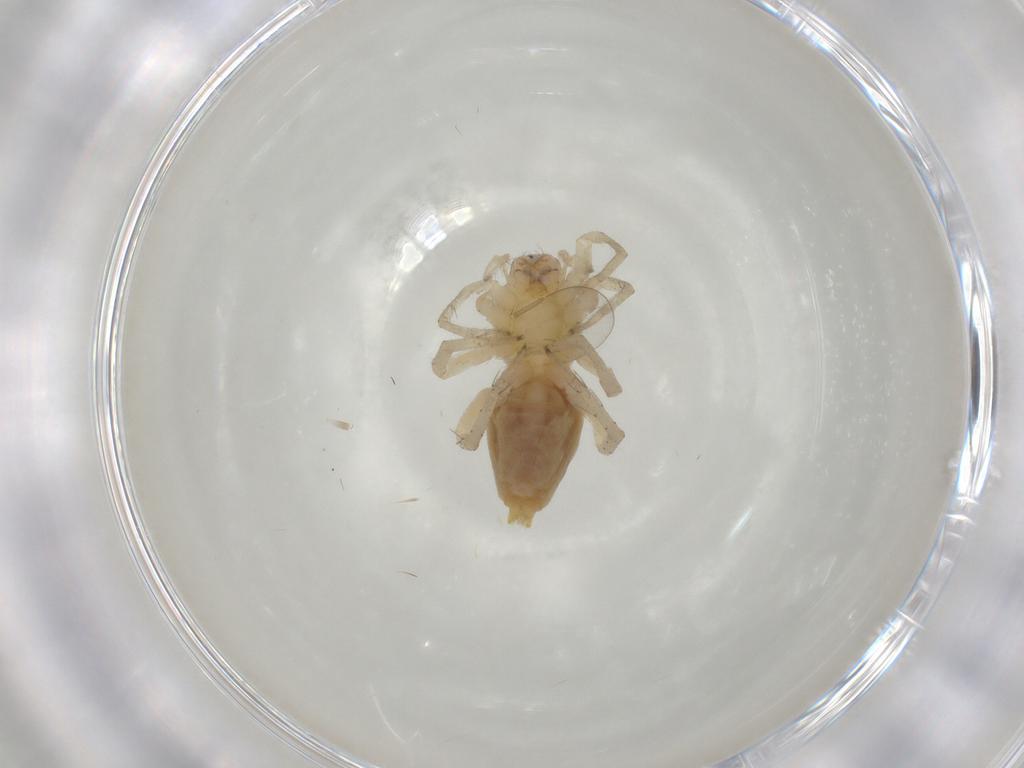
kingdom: Animalia
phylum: Arthropoda
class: Arachnida
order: Araneae
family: Clubionidae
